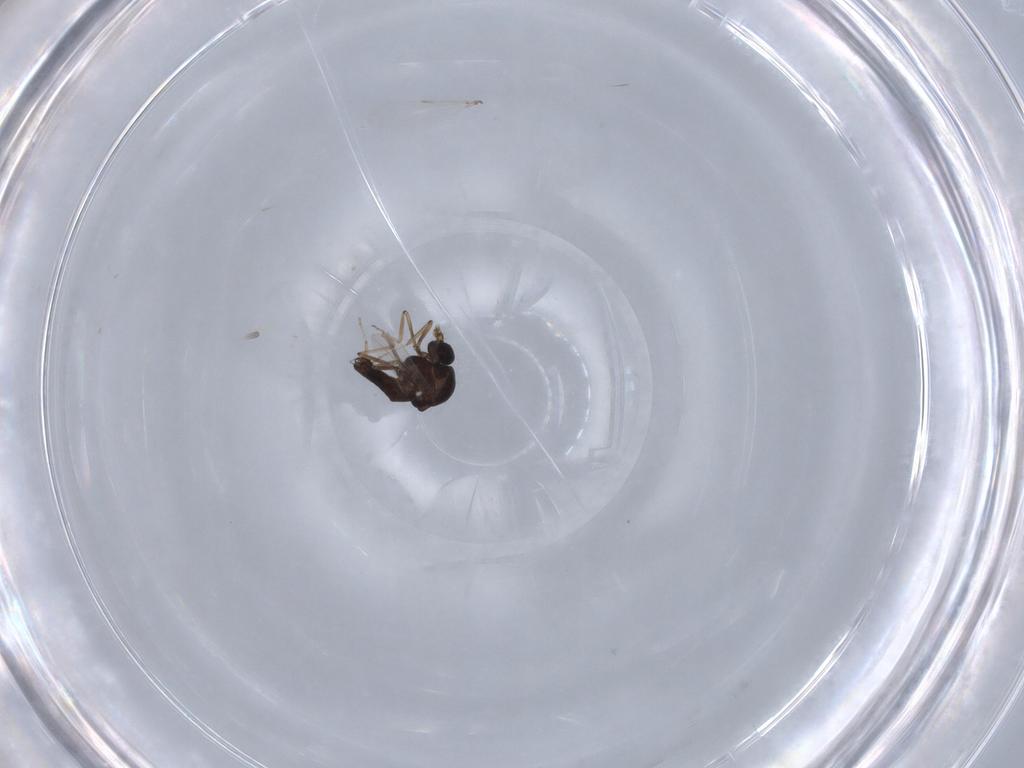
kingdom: Animalia
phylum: Arthropoda
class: Insecta
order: Diptera
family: Ceratopogonidae
